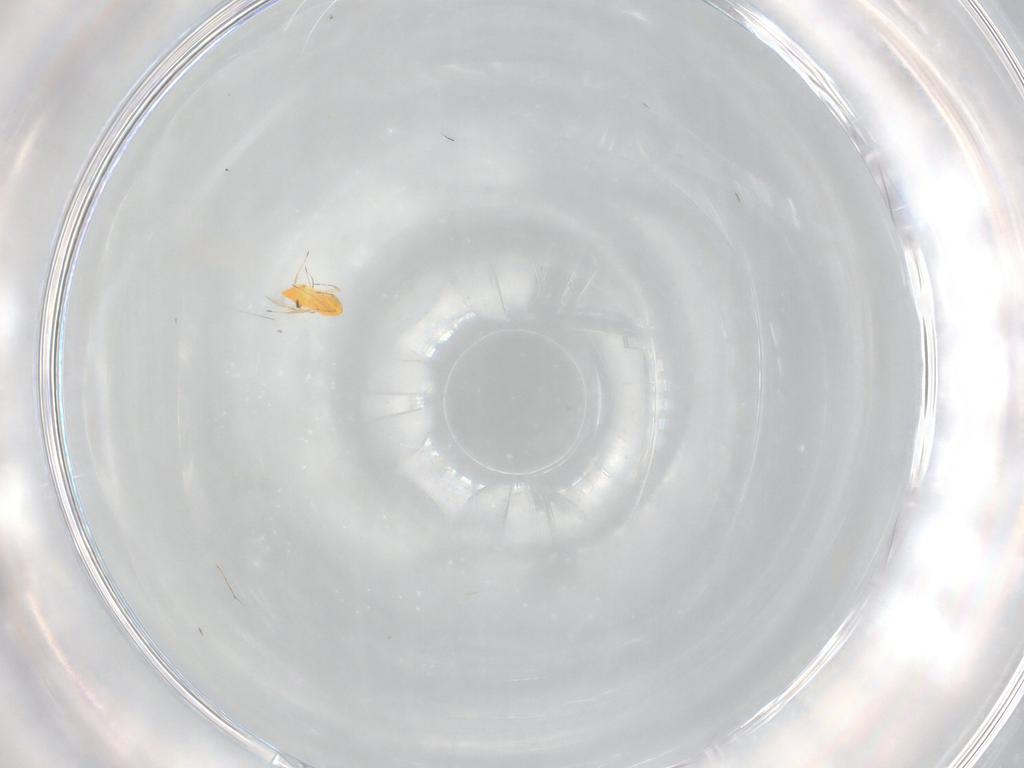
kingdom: Animalia
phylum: Arthropoda
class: Insecta
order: Hymenoptera
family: Trichogrammatidae
